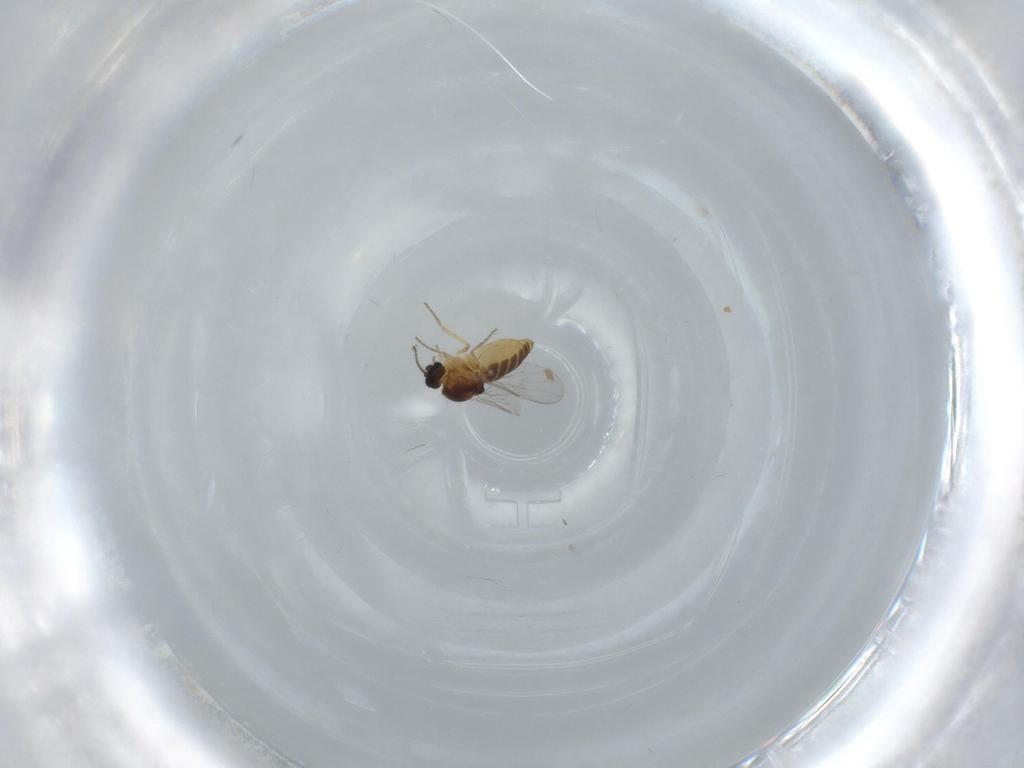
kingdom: Animalia
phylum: Arthropoda
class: Insecta
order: Diptera
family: Ceratopogonidae
